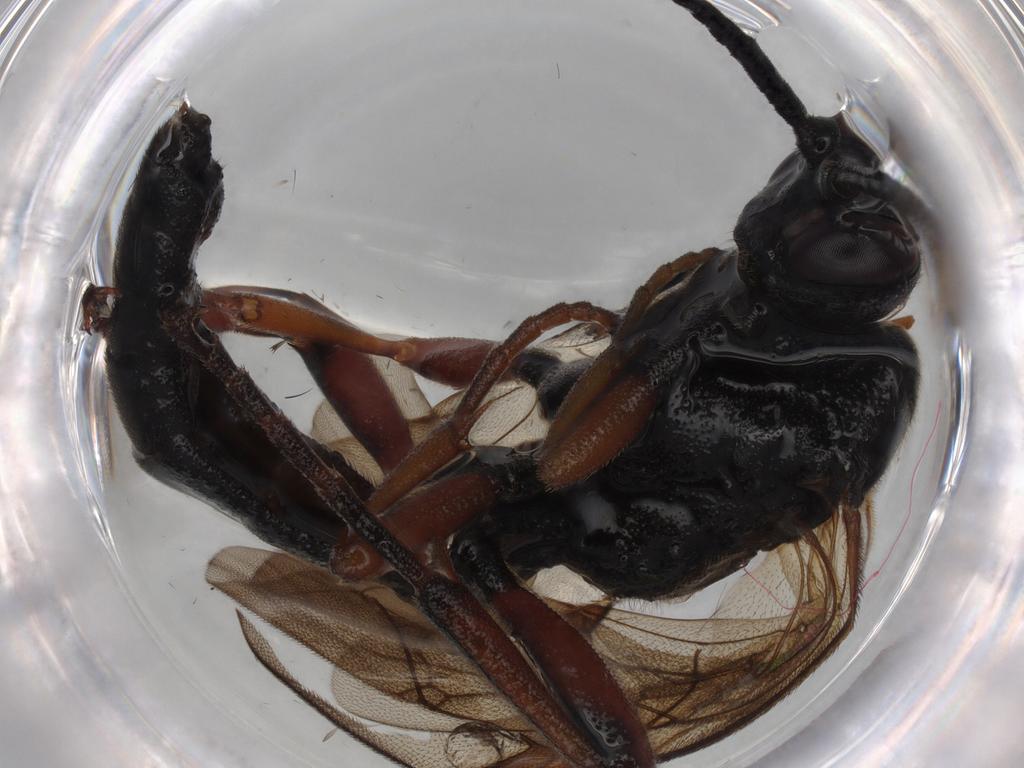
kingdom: Animalia
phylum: Arthropoda
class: Insecta
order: Hymenoptera
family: Ichneumonidae
